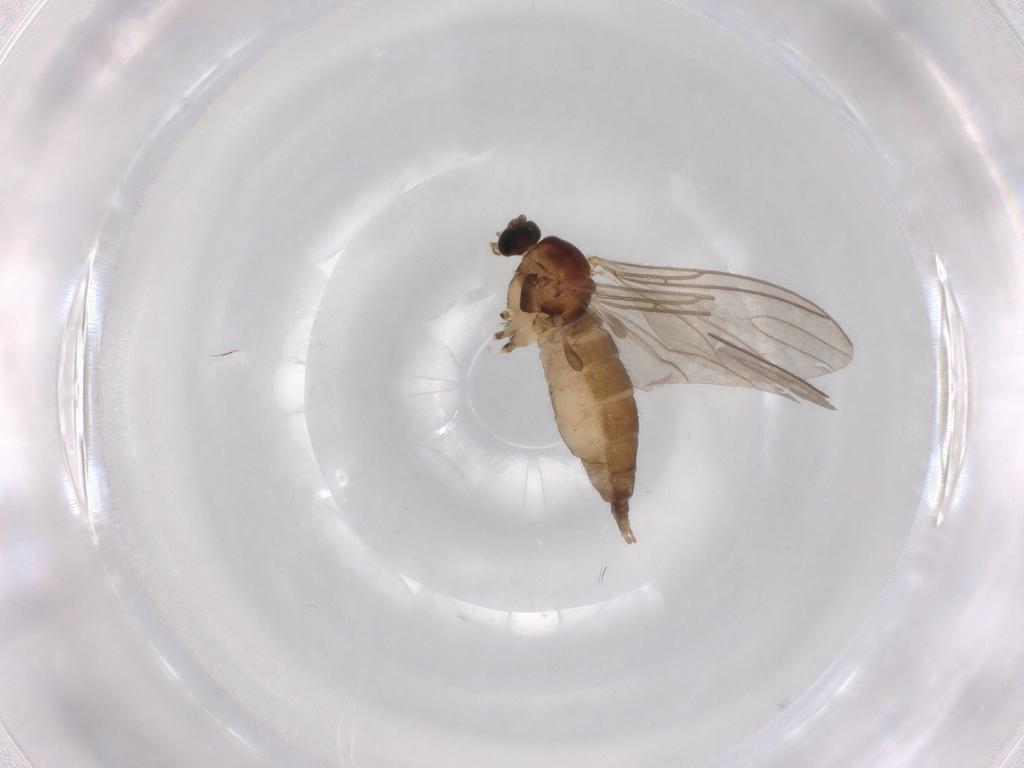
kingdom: Animalia
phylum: Arthropoda
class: Insecta
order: Diptera
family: Sciaridae
